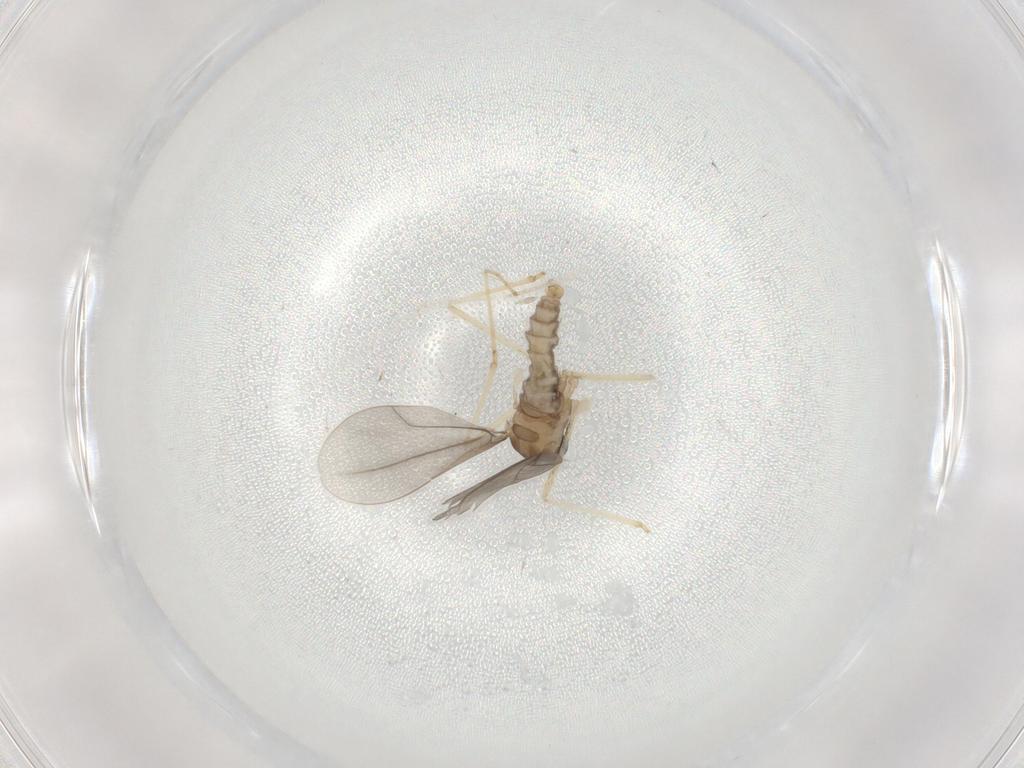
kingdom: Animalia
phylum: Arthropoda
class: Insecta
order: Diptera
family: Cecidomyiidae
